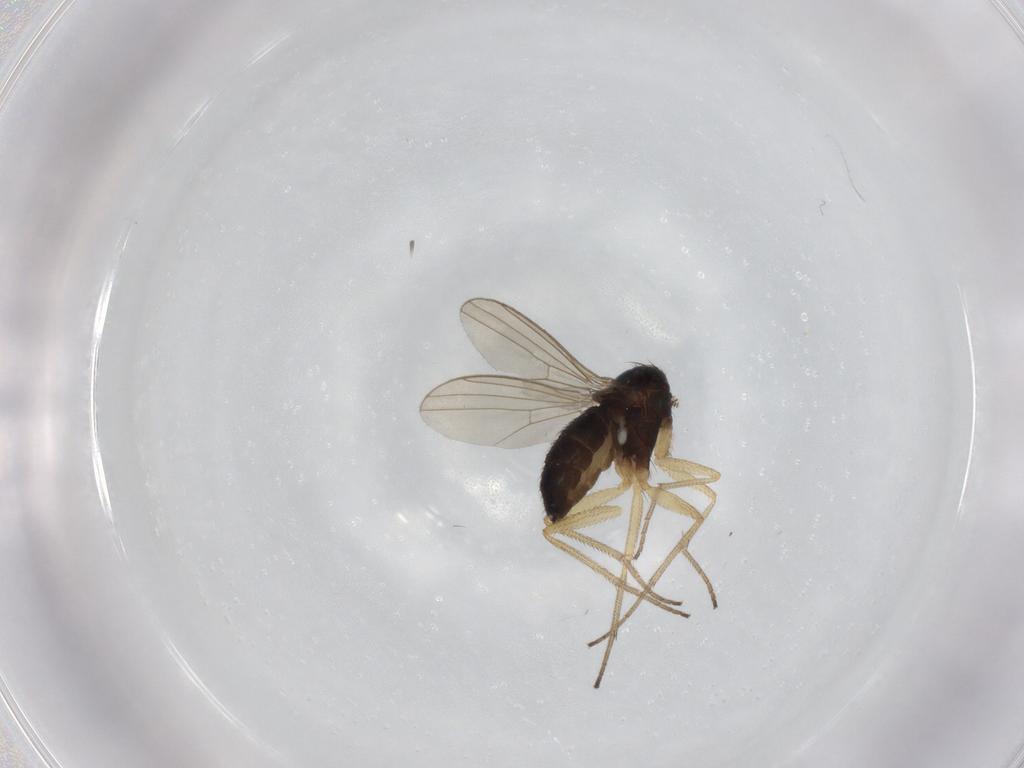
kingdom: Animalia
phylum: Arthropoda
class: Insecta
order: Diptera
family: Dolichopodidae
